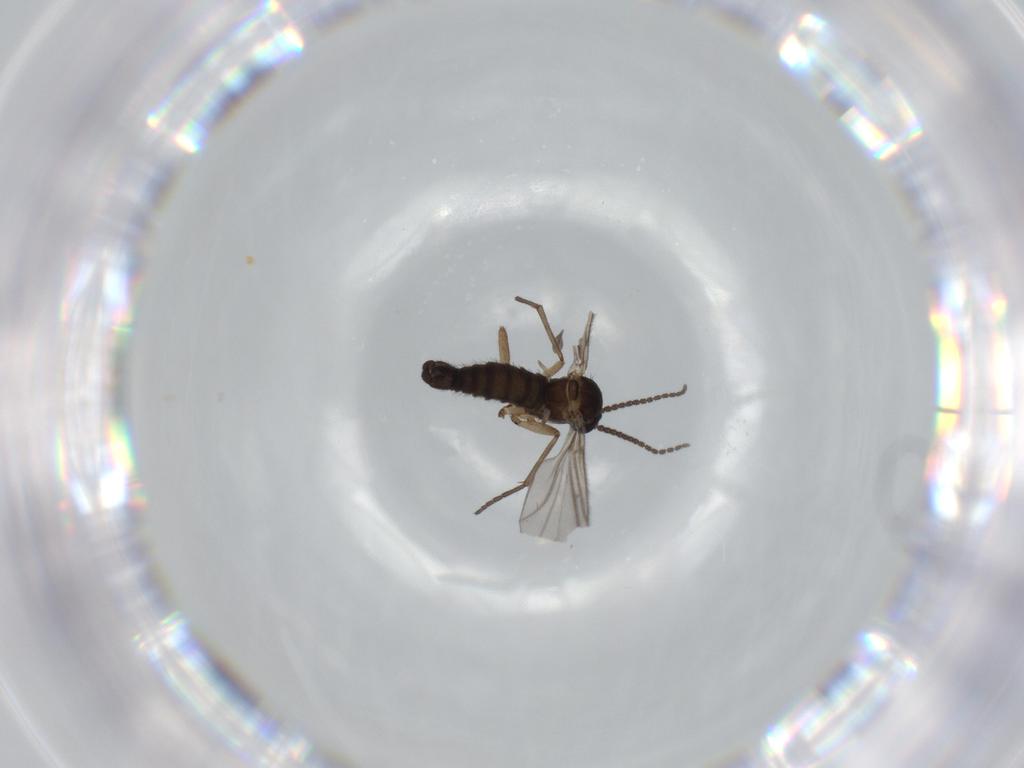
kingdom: Animalia
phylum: Arthropoda
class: Insecta
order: Diptera
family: Sciaridae
